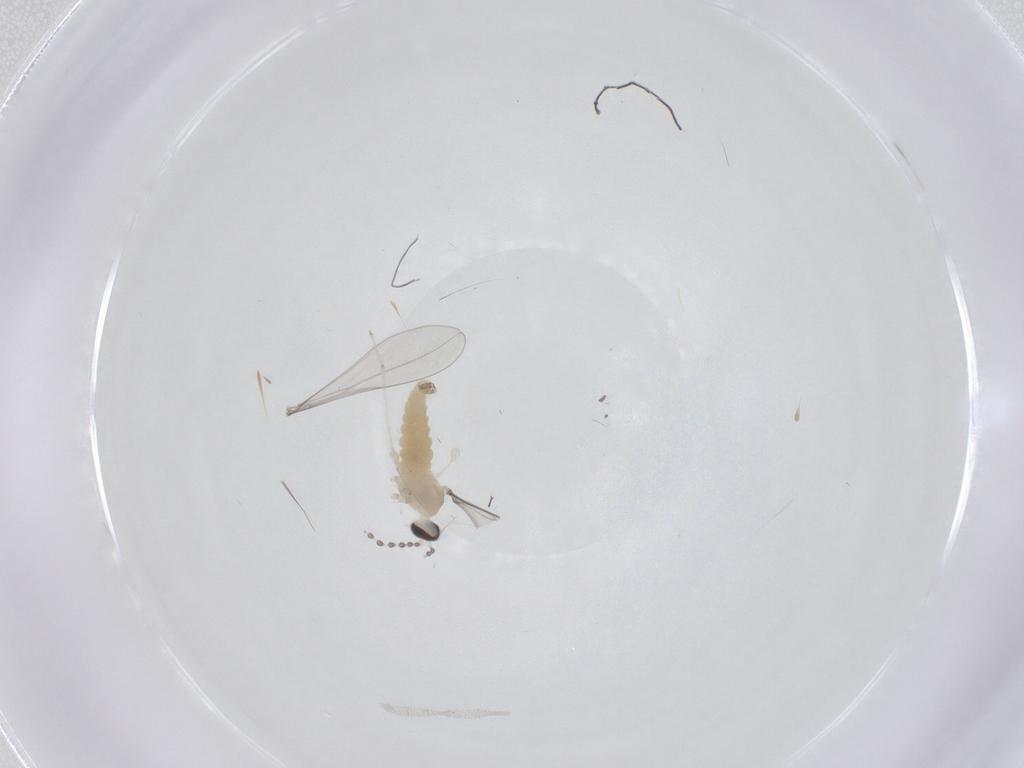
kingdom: Animalia
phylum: Arthropoda
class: Insecta
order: Diptera
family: Cecidomyiidae
